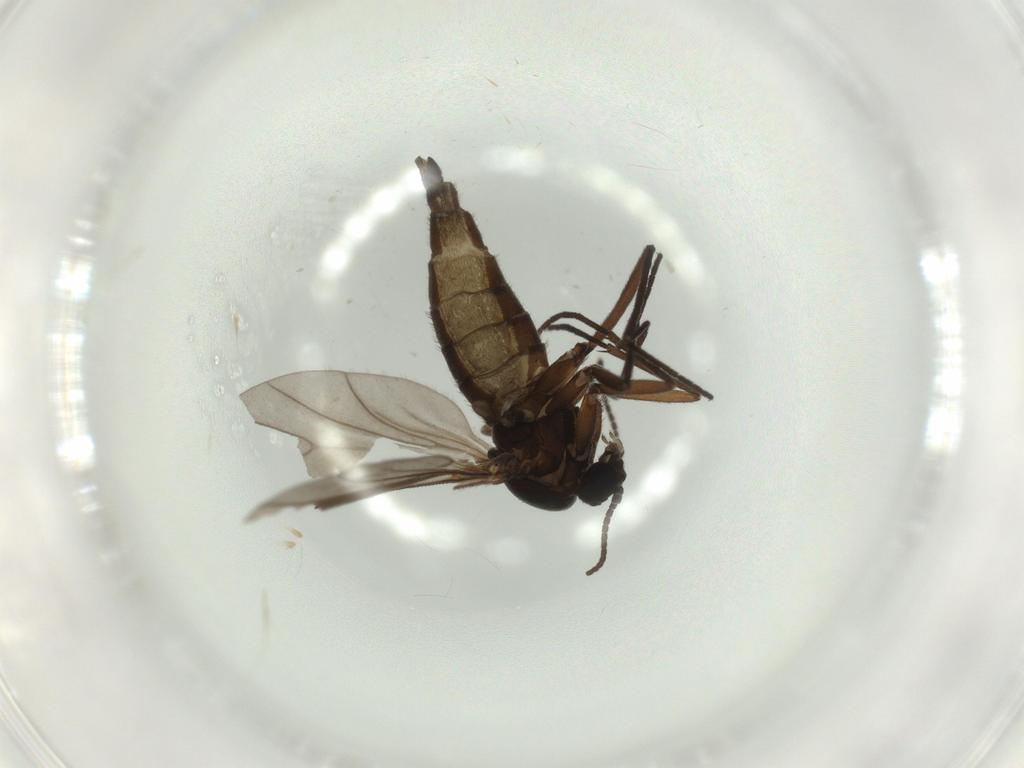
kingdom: Animalia
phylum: Arthropoda
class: Insecta
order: Diptera
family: Sciaridae
